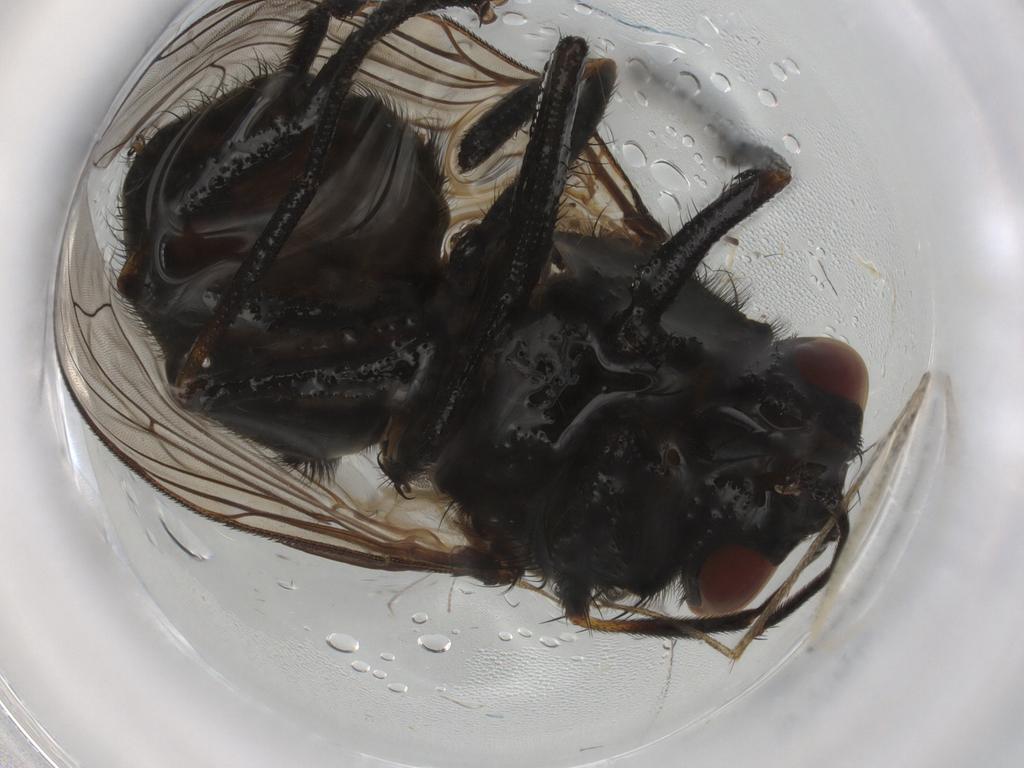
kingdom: Animalia
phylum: Arthropoda
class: Insecta
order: Diptera
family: Muscidae
